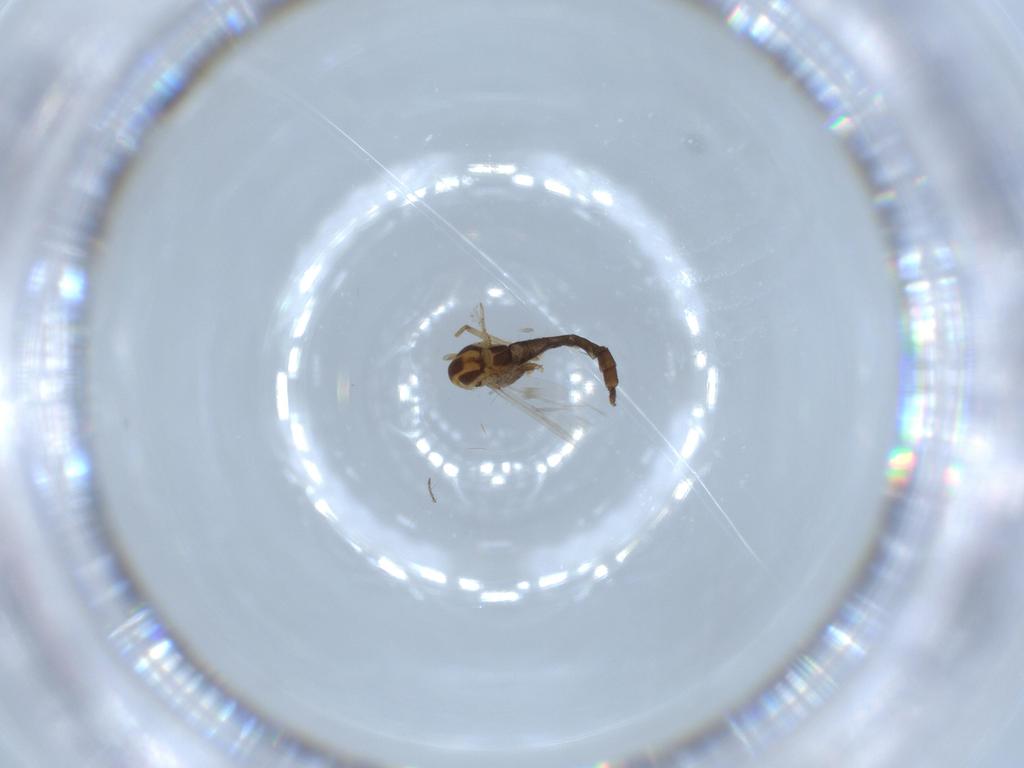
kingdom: Animalia
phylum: Arthropoda
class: Insecta
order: Diptera
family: Chironomidae
